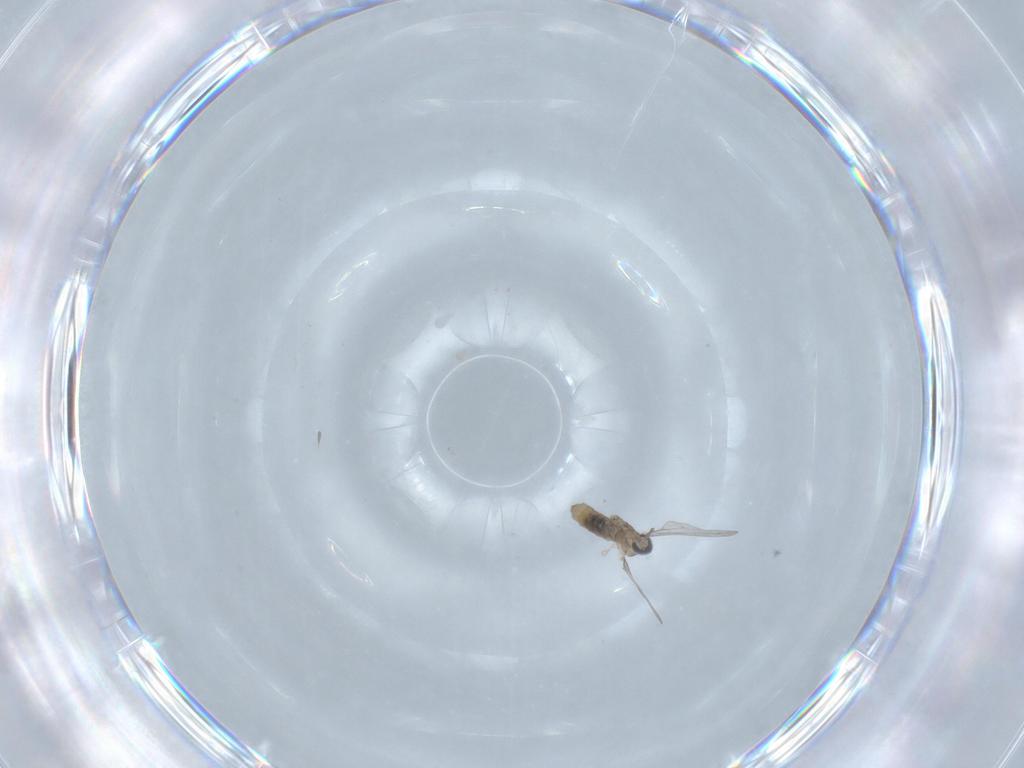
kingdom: Animalia
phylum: Arthropoda
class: Insecta
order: Diptera
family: Cecidomyiidae
